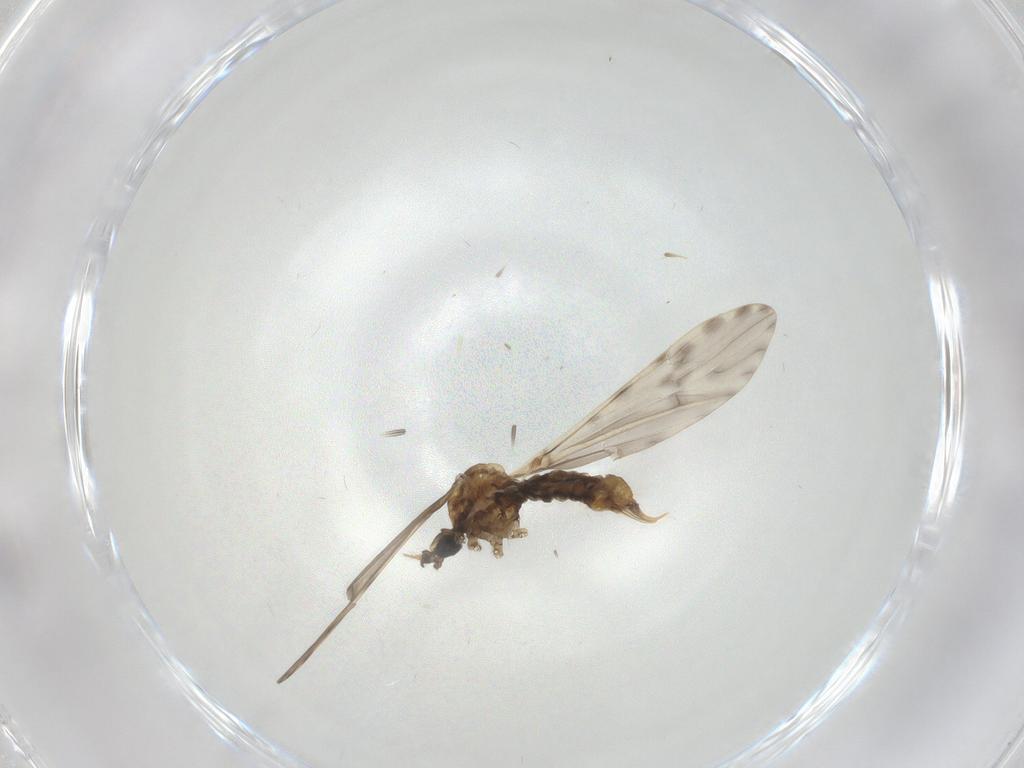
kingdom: Animalia
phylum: Arthropoda
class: Insecta
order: Diptera
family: Limoniidae
